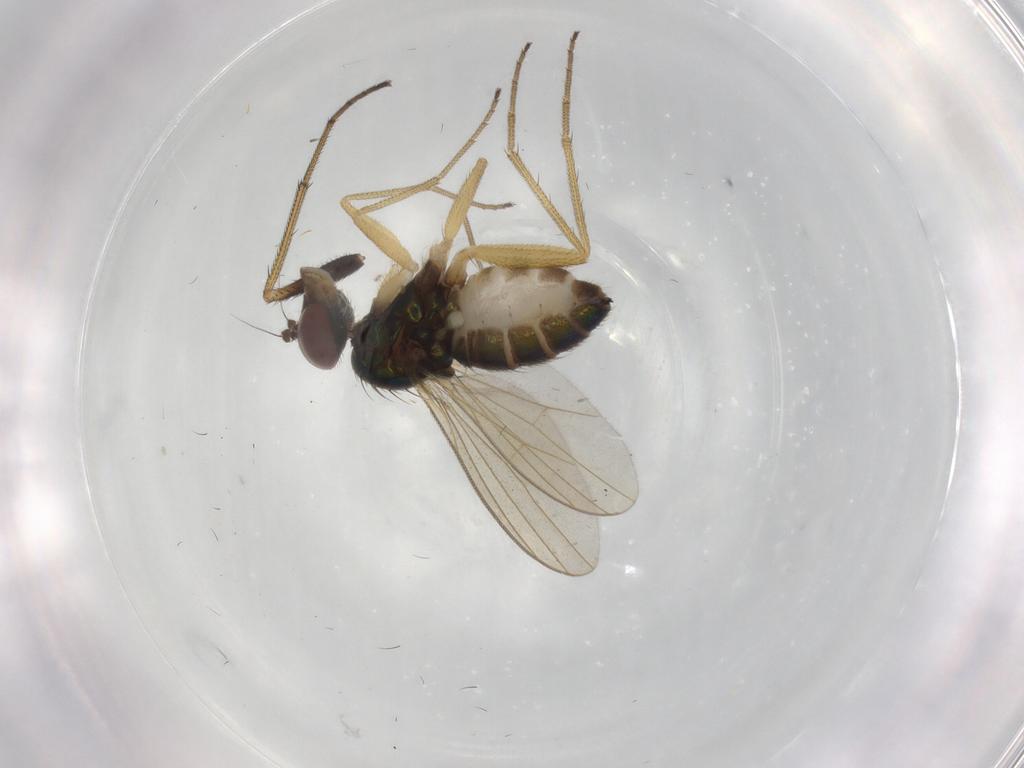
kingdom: Animalia
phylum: Arthropoda
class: Insecta
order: Diptera
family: Dolichopodidae
